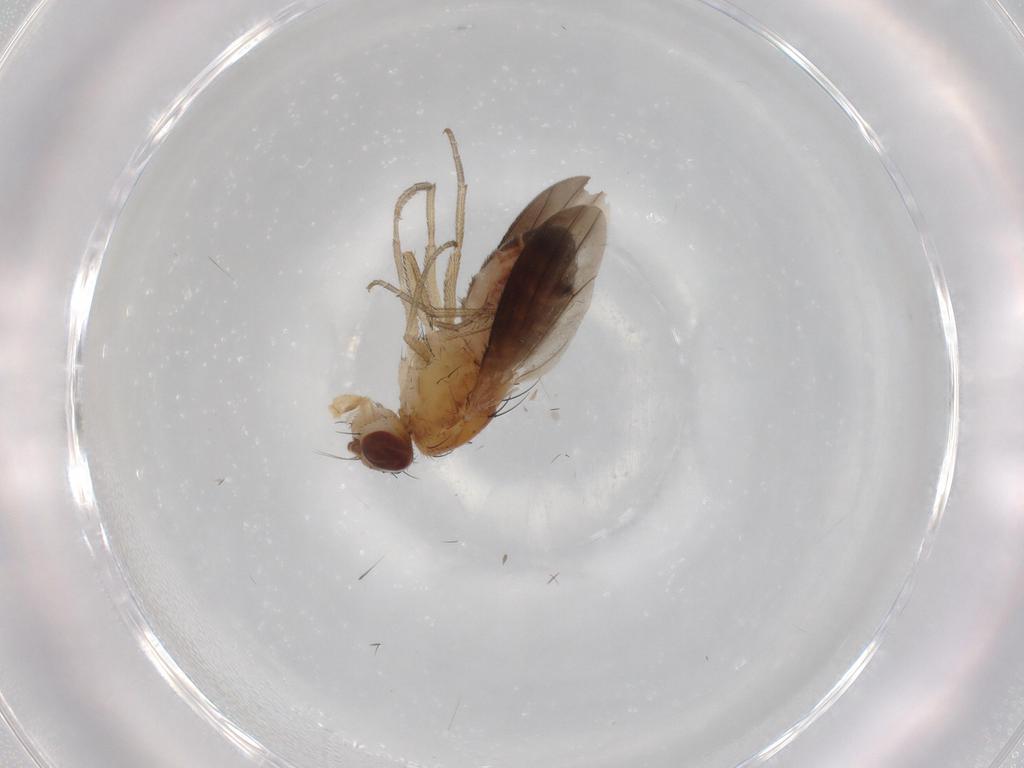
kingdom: Animalia
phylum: Arthropoda
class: Insecta
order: Diptera
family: Heleomyzidae
